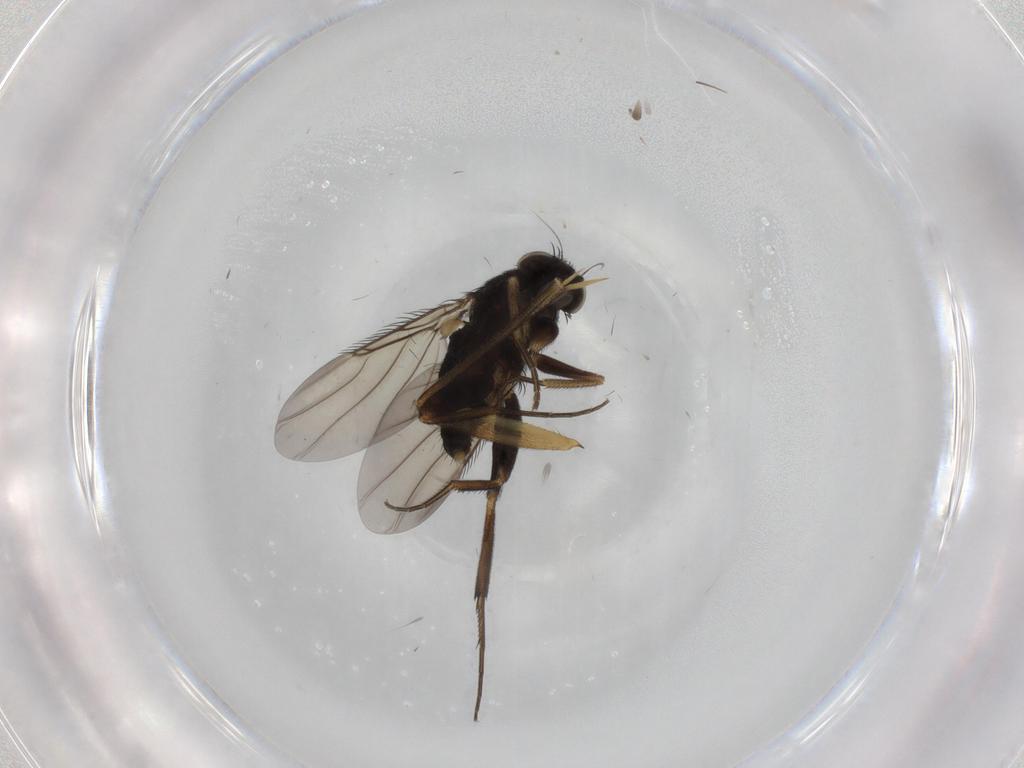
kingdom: Animalia
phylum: Arthropoda
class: Insecta
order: Diptera
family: Phoridae
